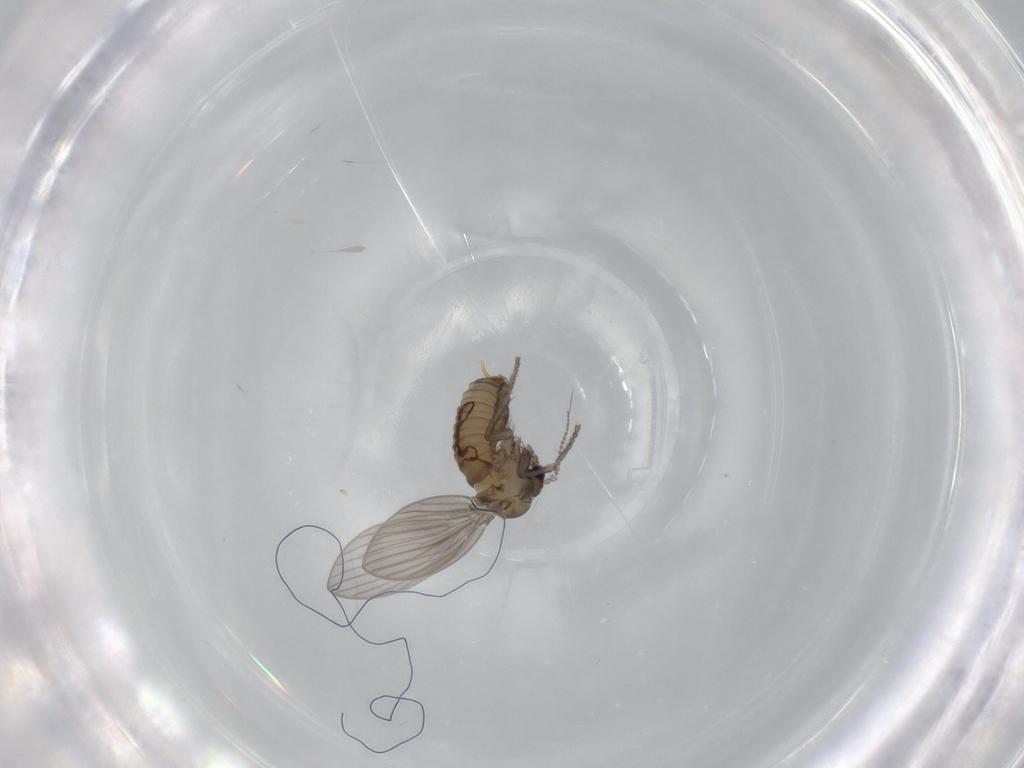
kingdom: Animalia
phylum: Arthropoda
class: Insecta
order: Diptera
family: Psychodidae
